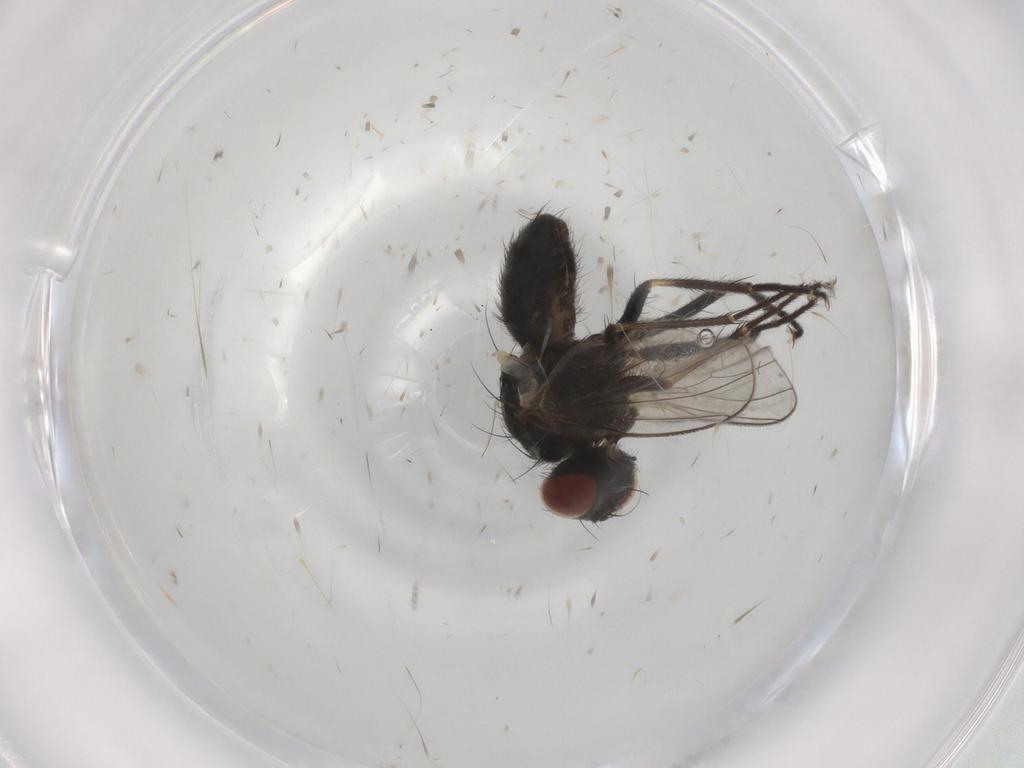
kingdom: Animalia
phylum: Arthropoda
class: Insecta
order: Diptera
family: Muscidae
